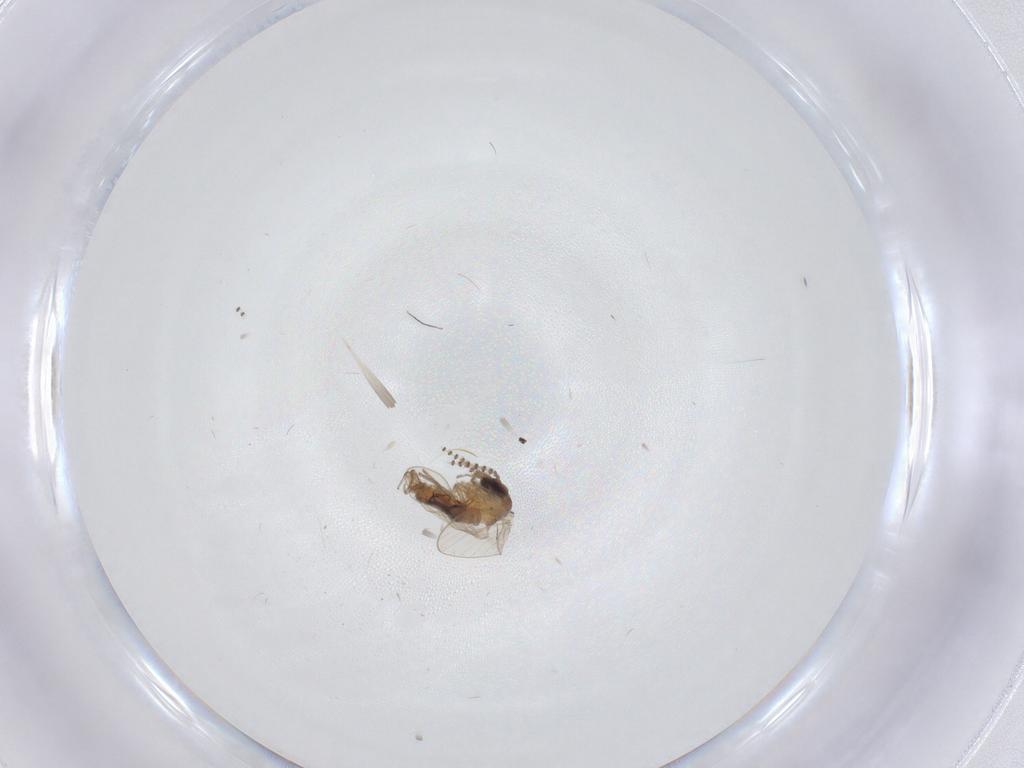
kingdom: Animalia
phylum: Arthropoda
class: Insecta
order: Diptera
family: Psychodidae
